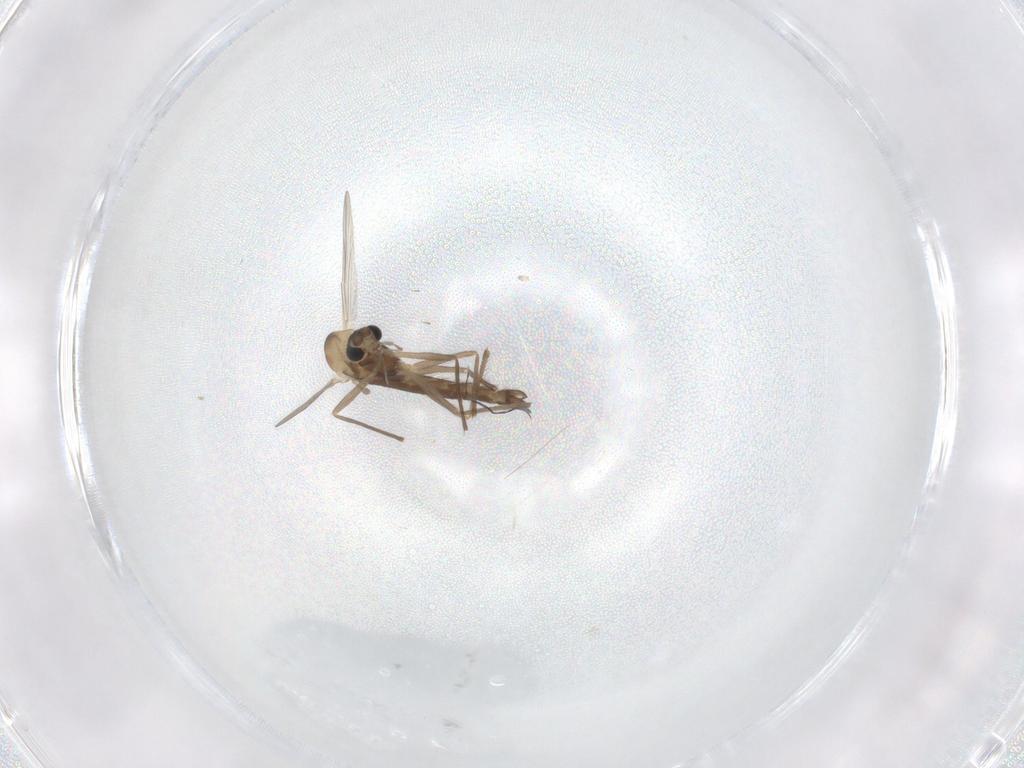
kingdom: Animalia
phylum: Arthropoda
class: Insecta
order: Diptera
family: Chironomidae
